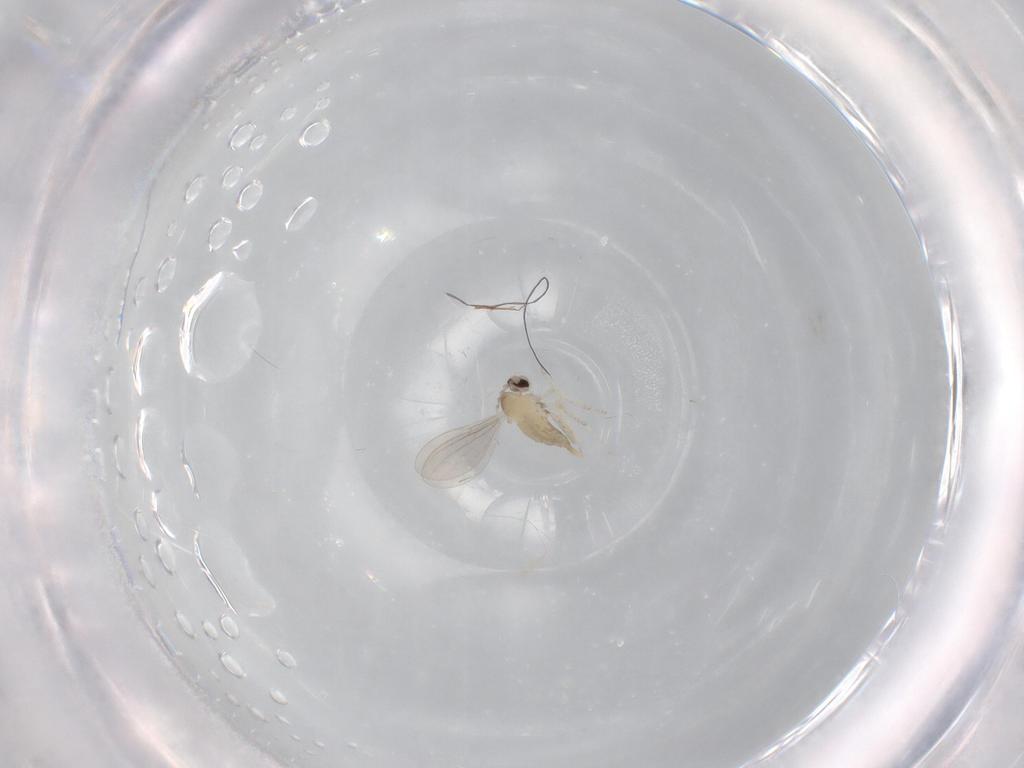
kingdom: Animalia
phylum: Arthropoda
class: Insecta
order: Diptera
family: Cecidomyiidae
